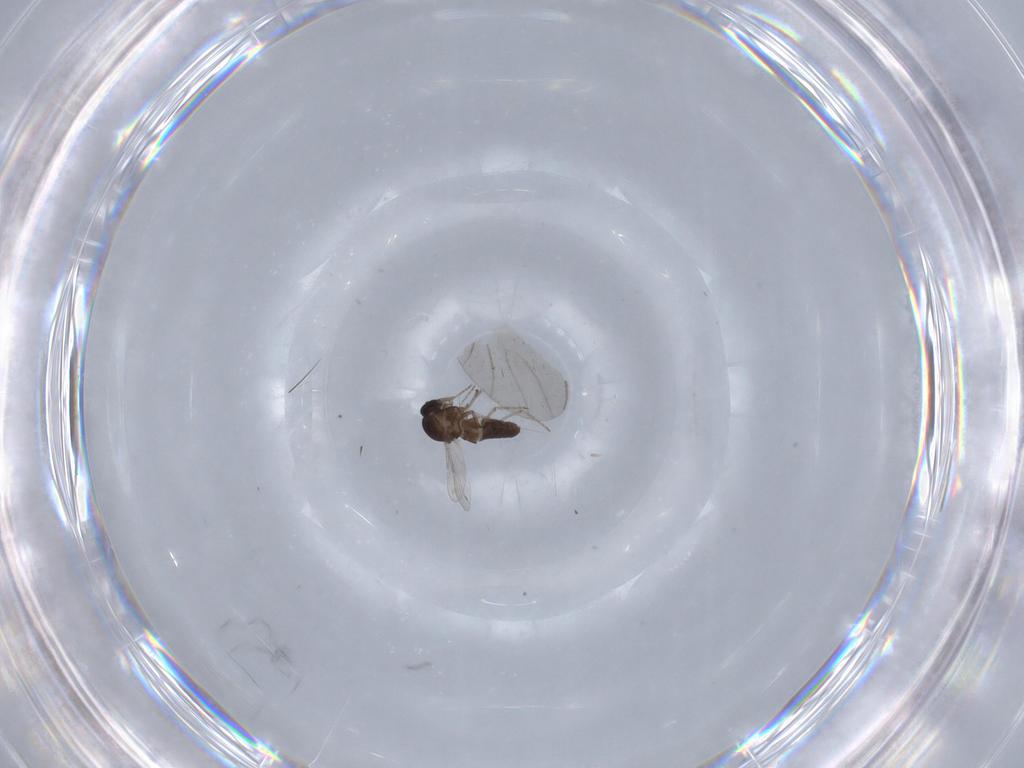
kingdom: Animalia
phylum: Arthropoda
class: Insecta
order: Diptera
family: Ceratopogonidae
